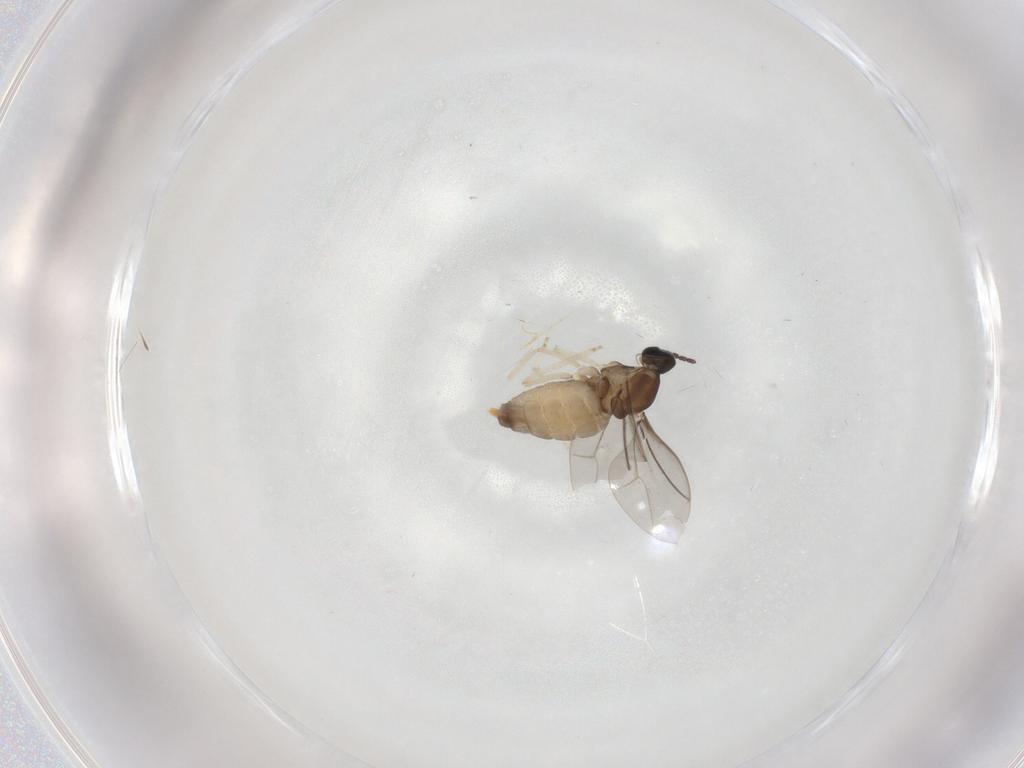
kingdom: Animalia
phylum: Arthropoda
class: Insecta
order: Diptera
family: Cecidomyiidae
